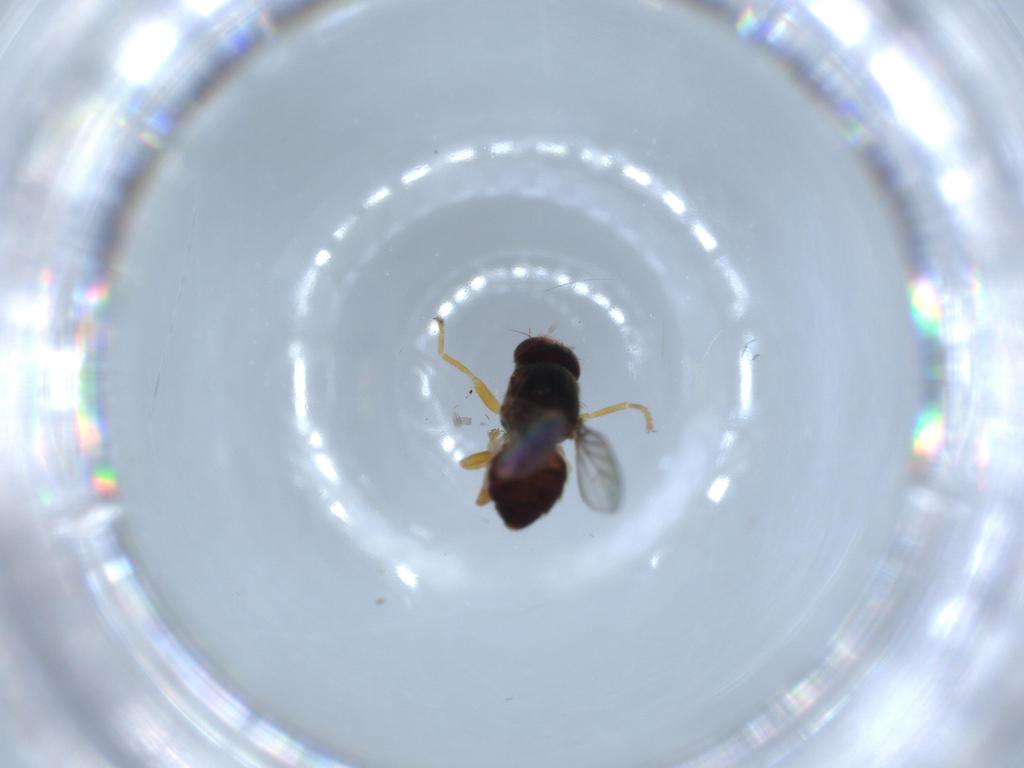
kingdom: Animalia
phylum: Arthropoda
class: Insecta
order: Diptera
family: Chloropidae
